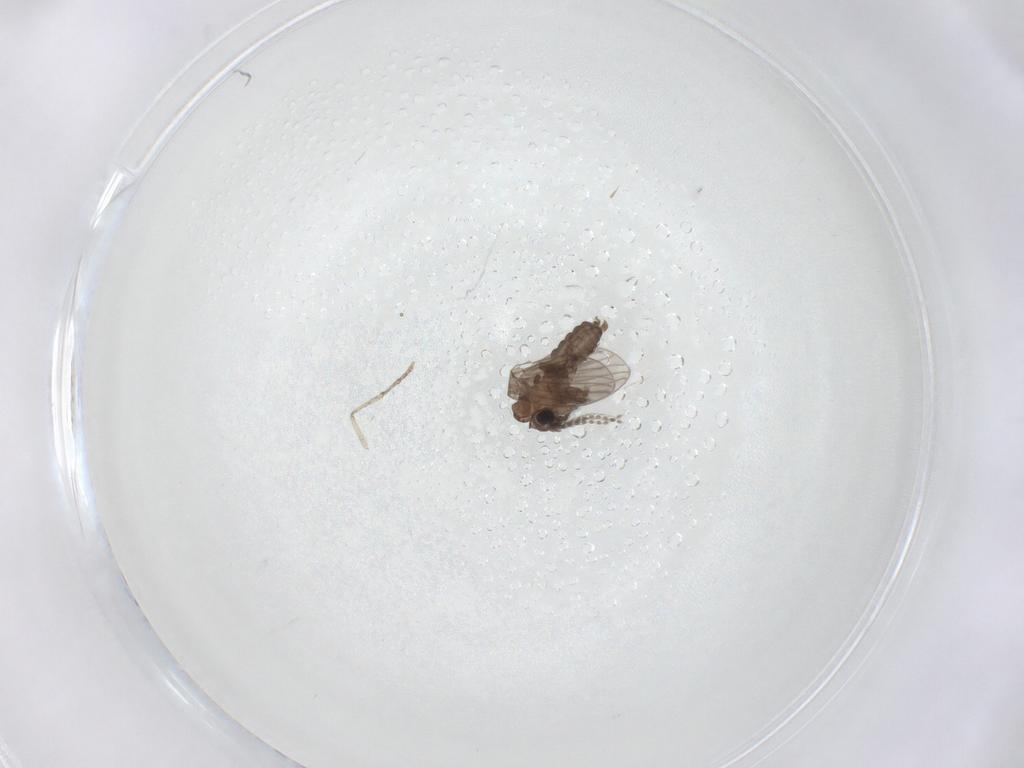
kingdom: Animalia
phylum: Arthropoda
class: Insecta
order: Diptera
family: Psychodidae
